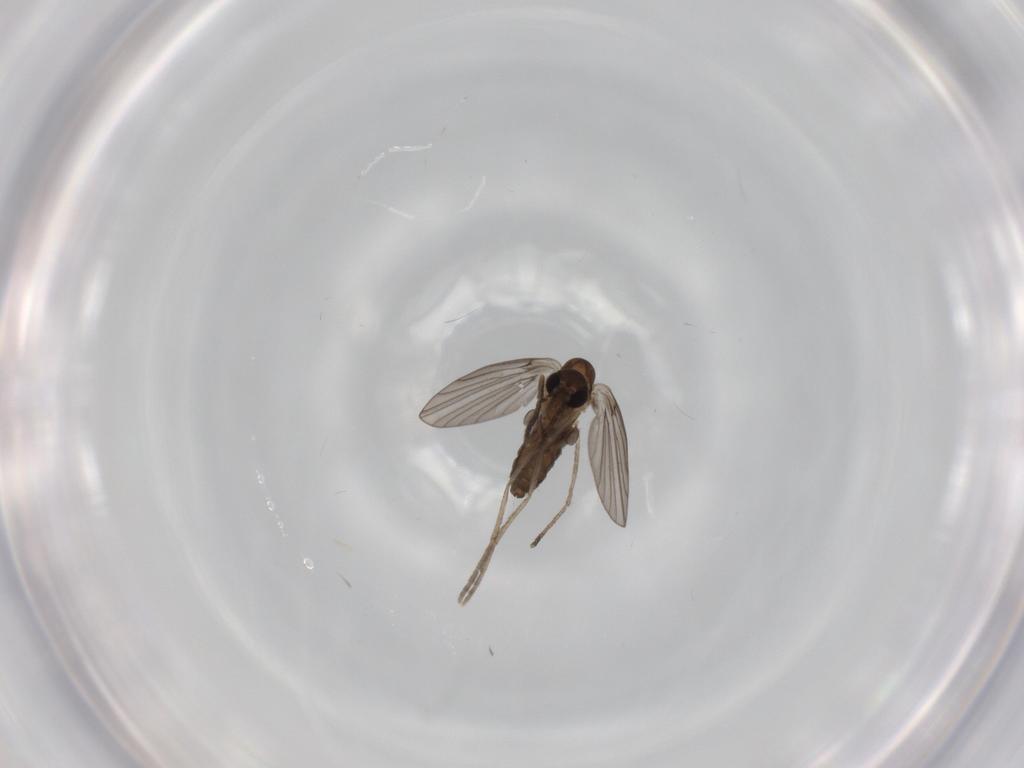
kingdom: Animalia
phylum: Arthropoda
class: Insecta
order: Diptera
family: Psychodidae
